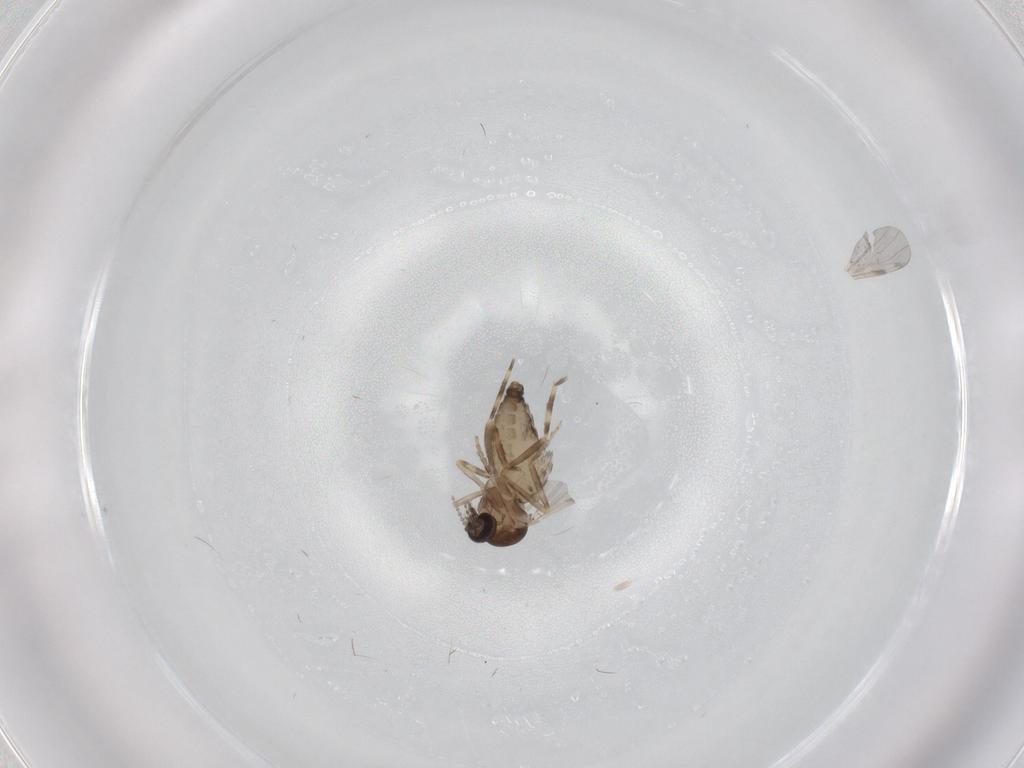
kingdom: Animalia
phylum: Arthropoda
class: Insecta
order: Diptera
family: Ceratopogonidae
